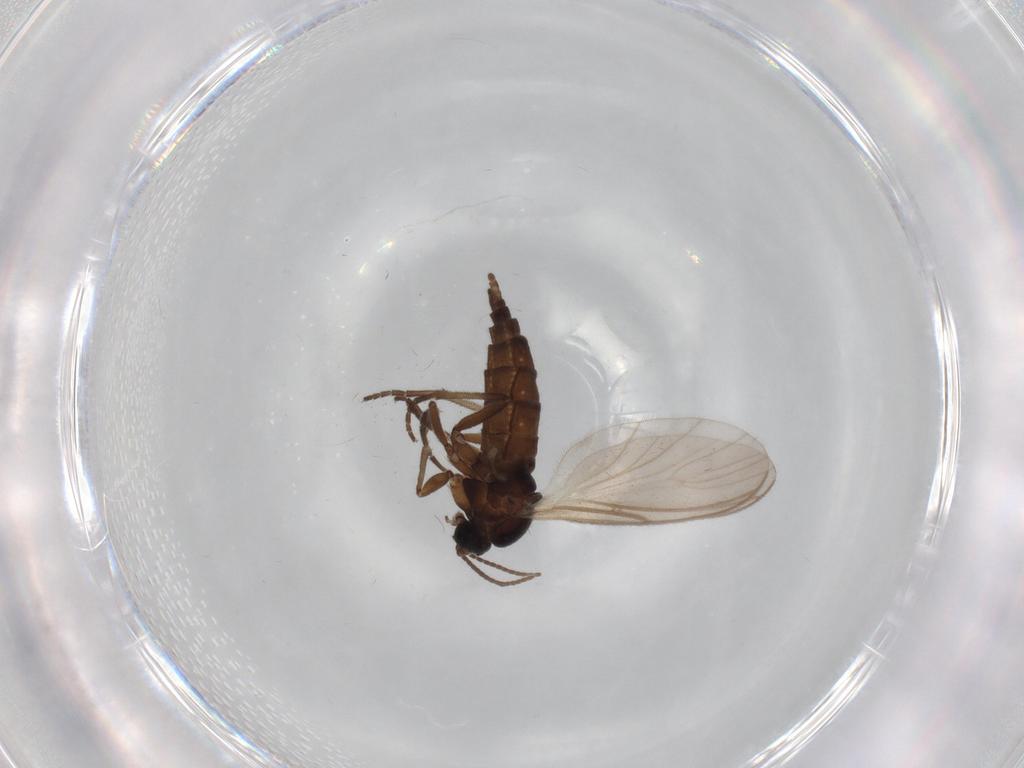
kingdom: Animalia
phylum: Arthropoda
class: Insecta
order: Diptera
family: Sciaridae
